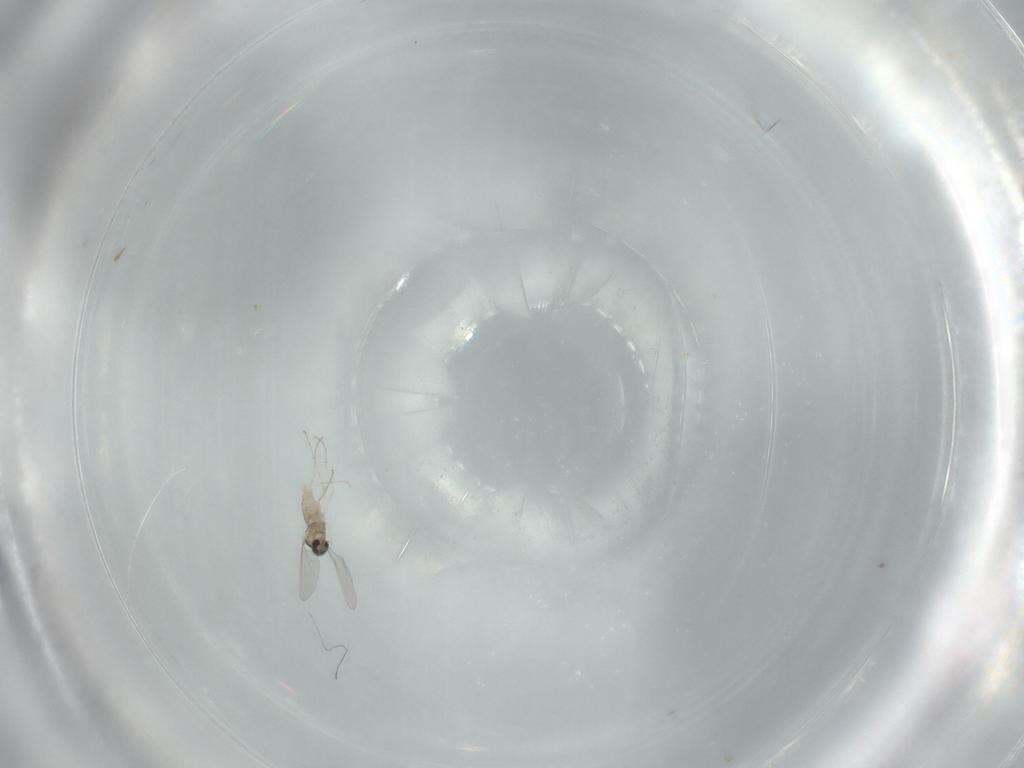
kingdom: Animalia
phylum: Arthropoda
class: Insecta
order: Diptera
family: Cecidomyiidae
